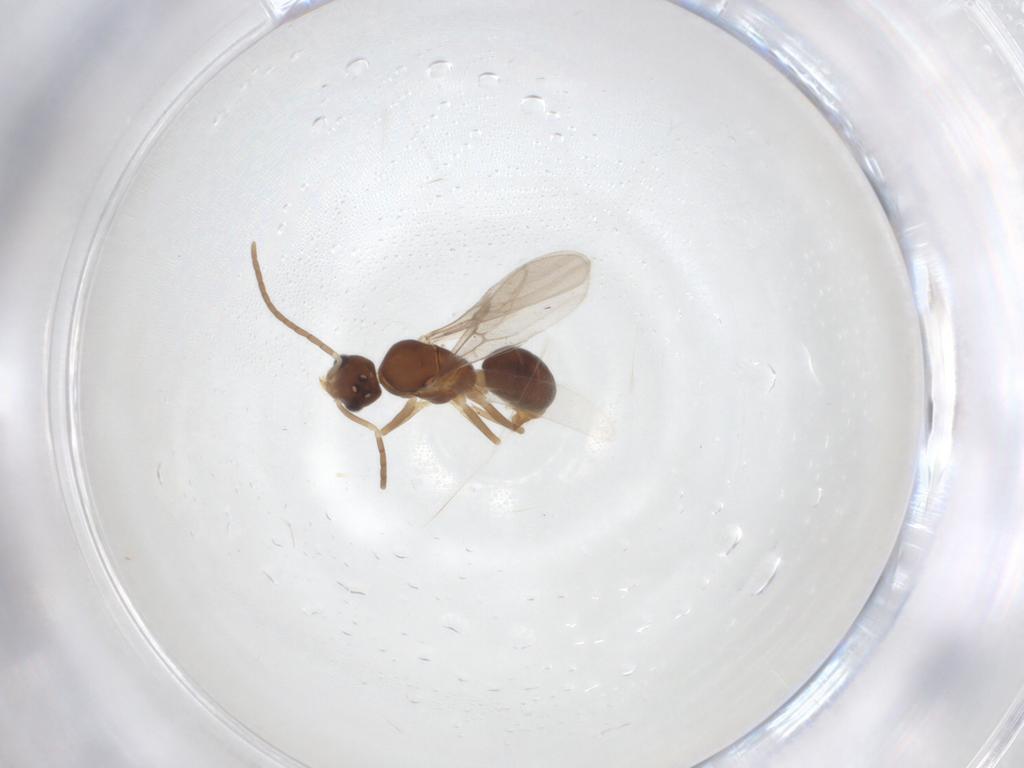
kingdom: Animalia
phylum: Arthropoda
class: Insecta
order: Hymenoptera
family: Formicidae
